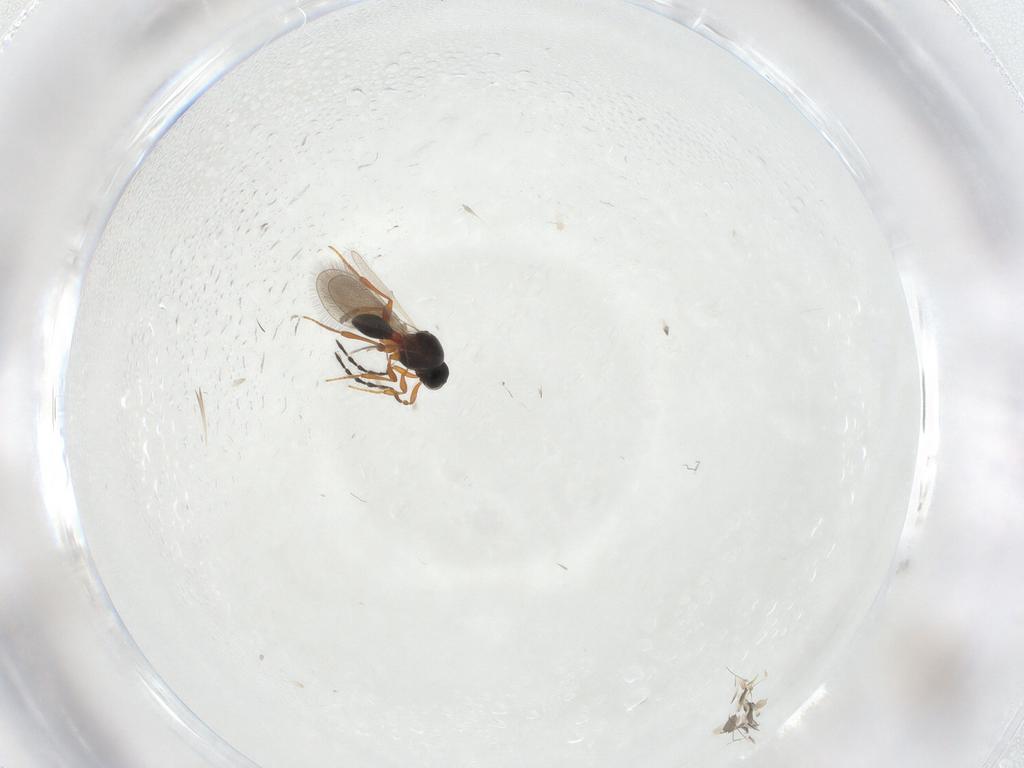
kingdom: Animalia
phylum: Arthropoda
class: Insecta
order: Hymenoptera
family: Platygastridae
